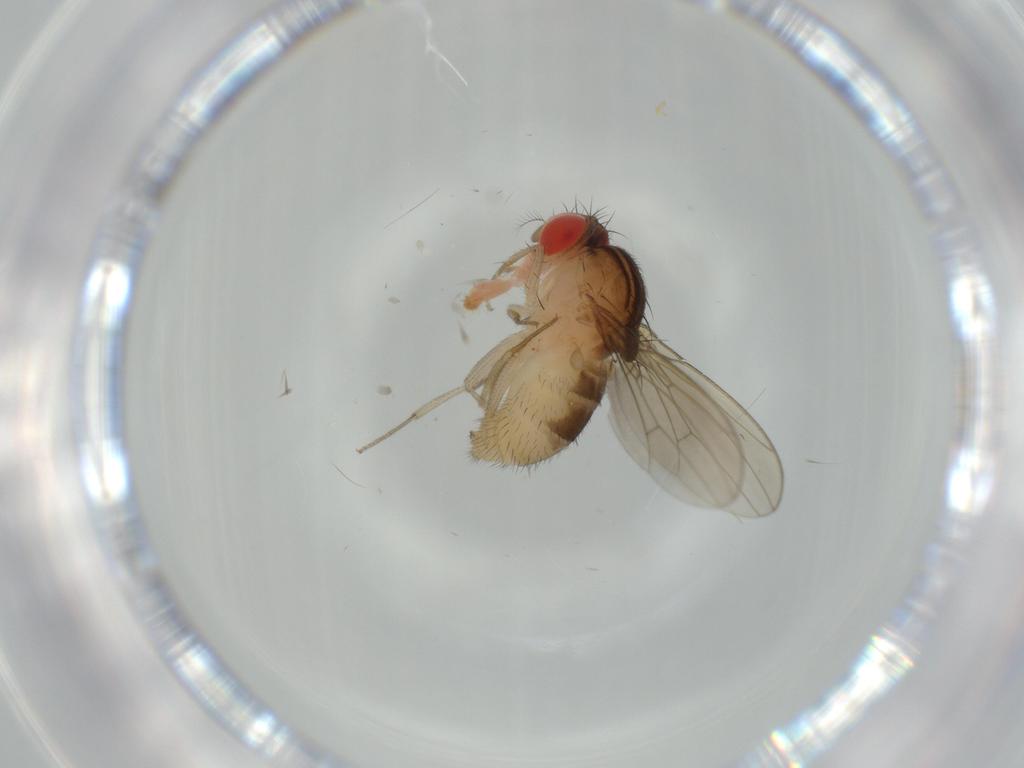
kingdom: Animalia
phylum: Arthropoda
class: Insecta
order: Diptera
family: Drosophilidae
